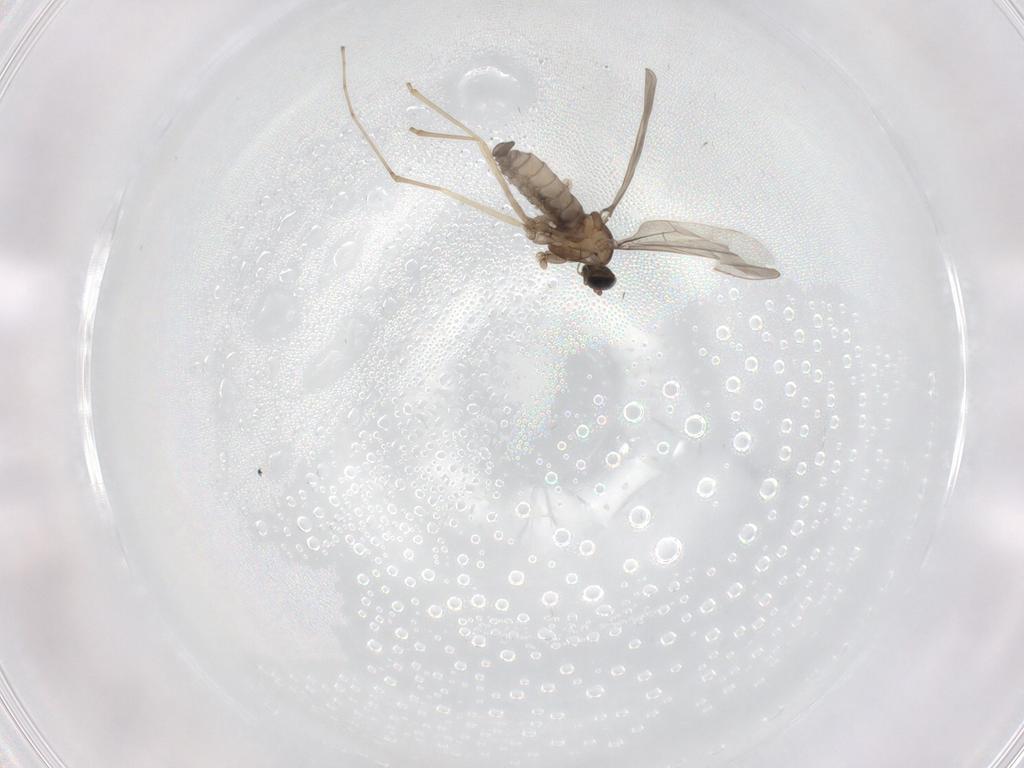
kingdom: Animalia
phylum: Arthropoda
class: Insecta
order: Diptera
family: Cecidomyiidae
